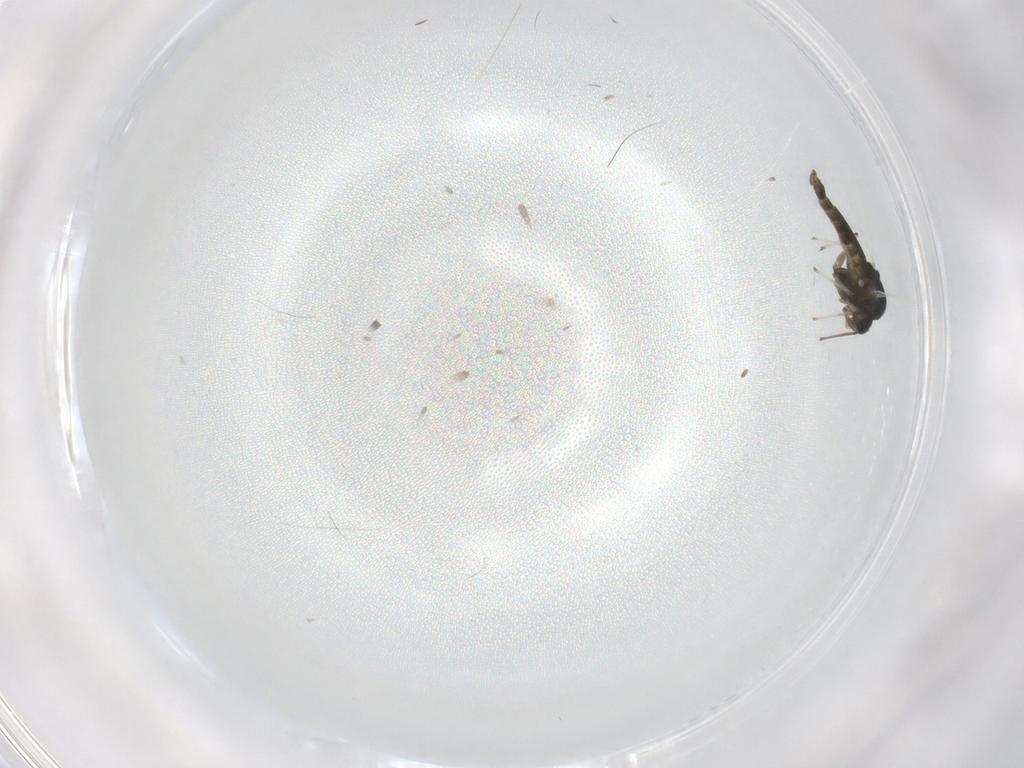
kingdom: Animalia
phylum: Arthropoda
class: Insecta
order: Diptera
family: Chironomidae
